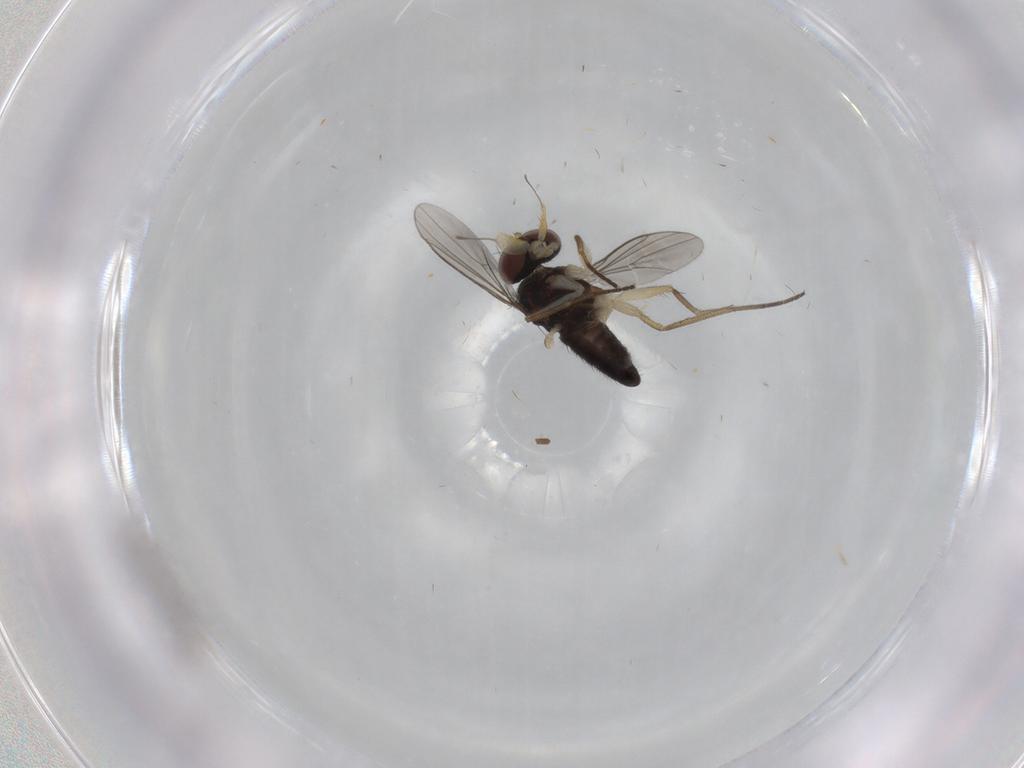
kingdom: Animalia
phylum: Arthropoda
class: Insecta
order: Diptera
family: Dolichopodidae
